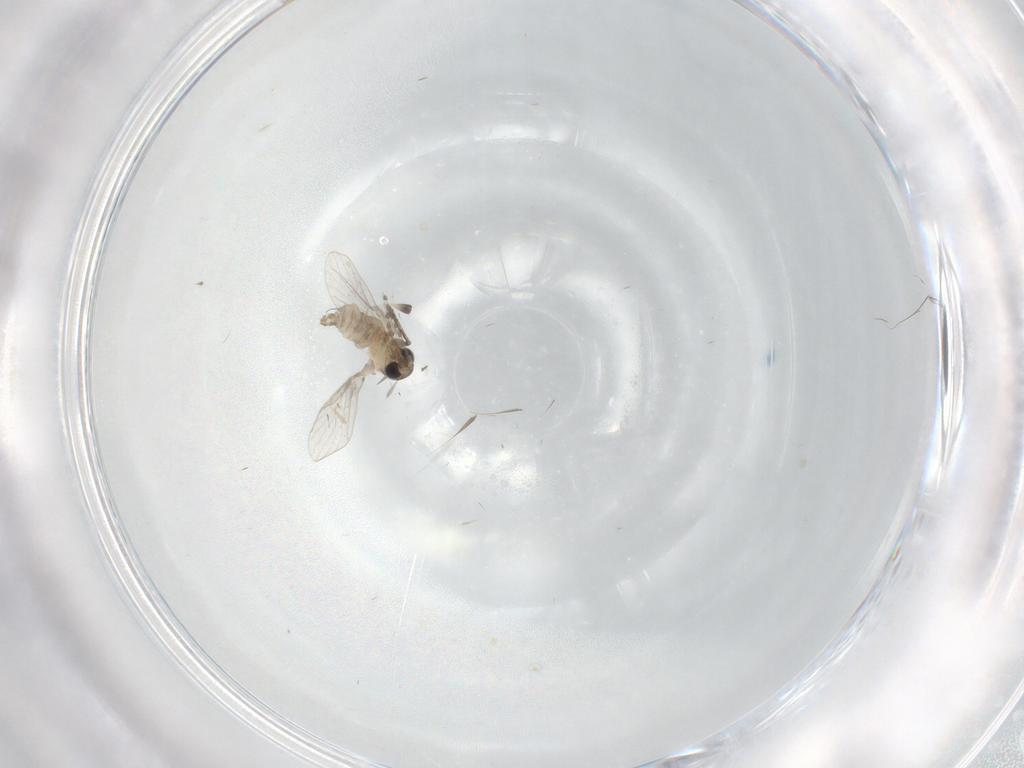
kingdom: Animalia
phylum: Arthropoda
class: Insecta
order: Diptera
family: Psychodidae
